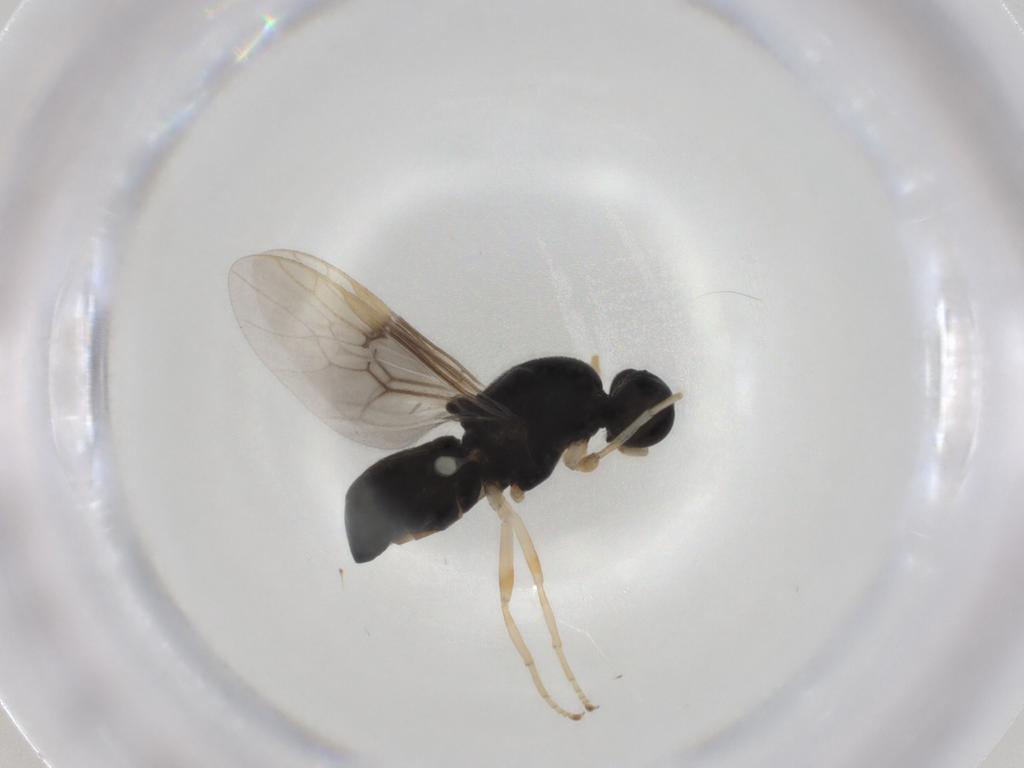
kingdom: Animalia
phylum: Arthropoda
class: Insecta
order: Diptera
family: Stratiomyidae
